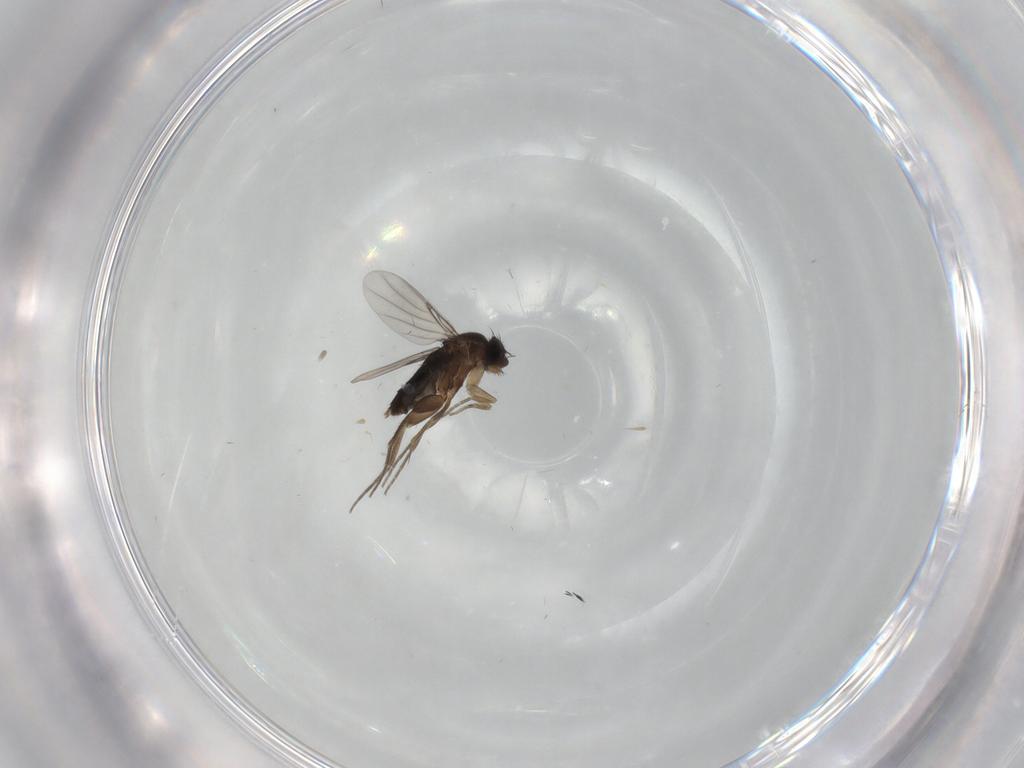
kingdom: Animalia
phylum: Arthropoda
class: Insecta
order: Diptera
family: Phoridae
